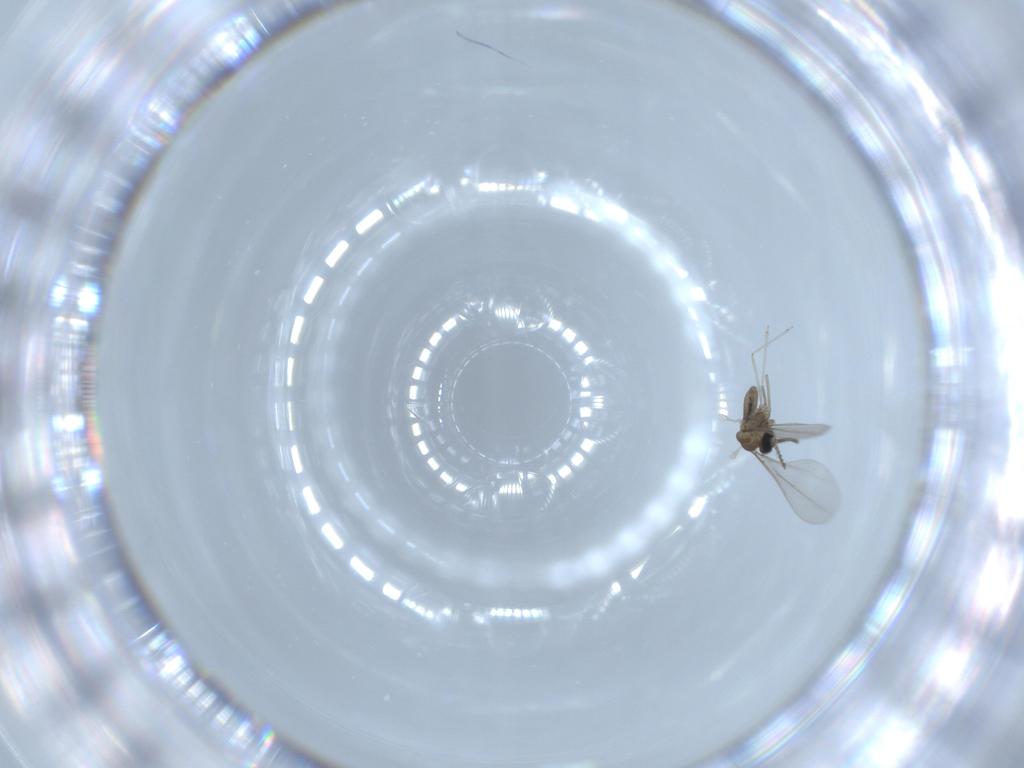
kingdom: Animalia
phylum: Arthropoda
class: Insecta
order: Diptera
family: Cecidomyiidae
